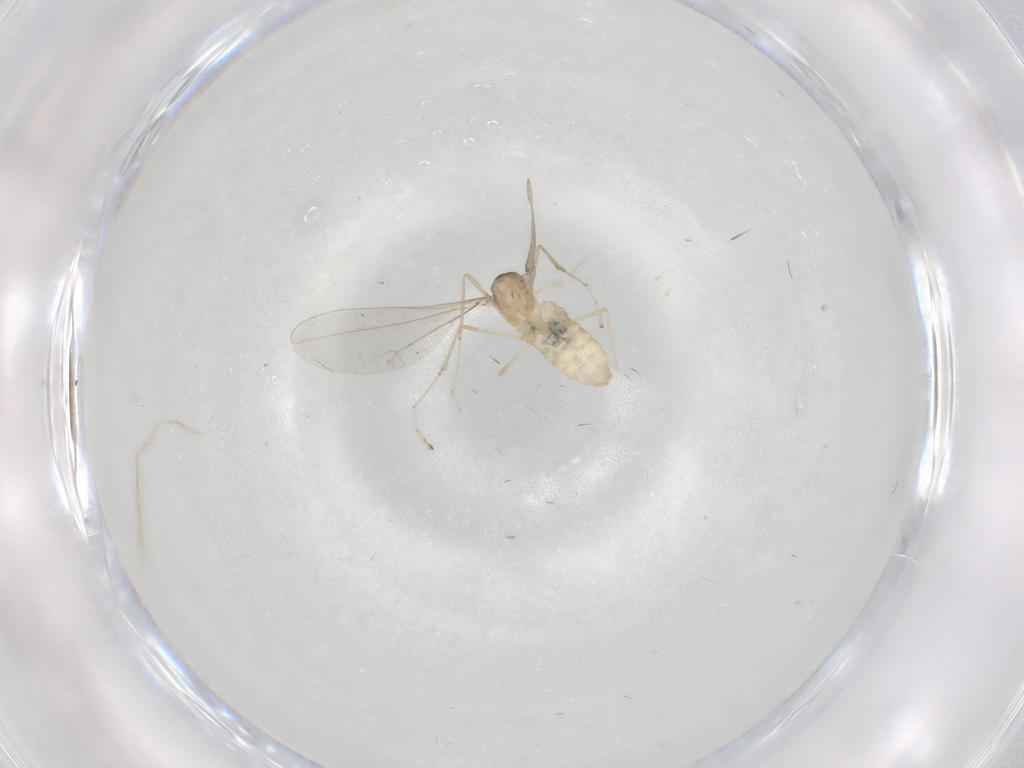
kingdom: Animalia
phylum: Arthropoda
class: Insecta
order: Diptera
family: Cecidomyiidae
